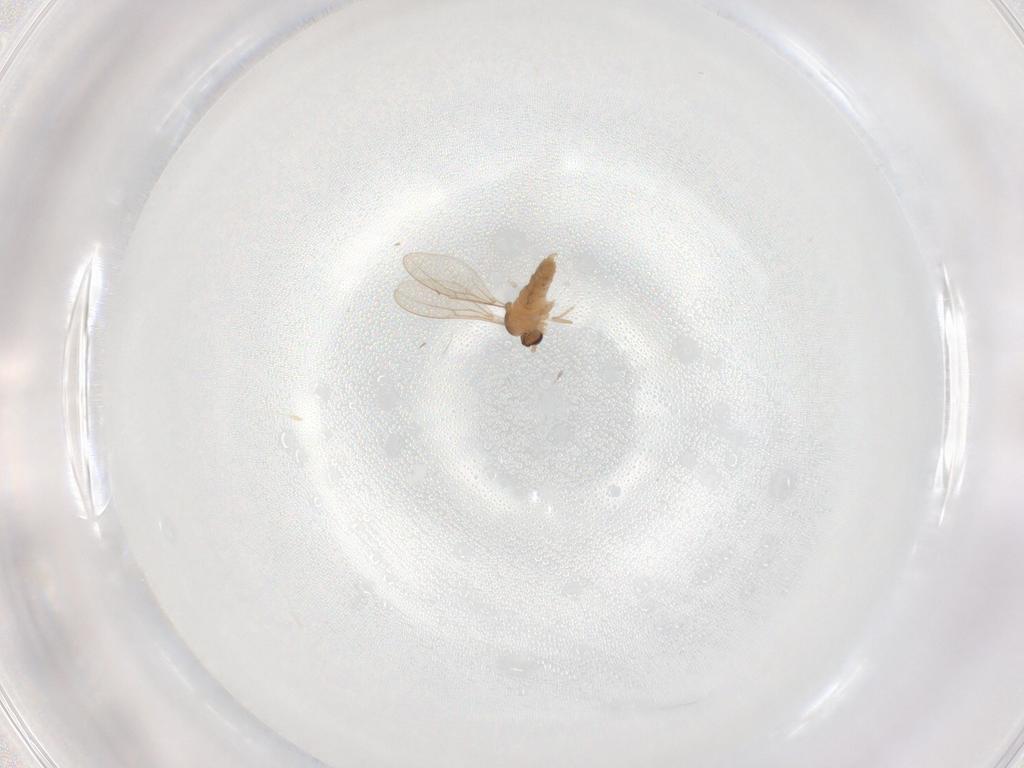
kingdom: Animalia
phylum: Arthropoda
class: Insecta
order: Diptera
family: Cecidomyiidae
